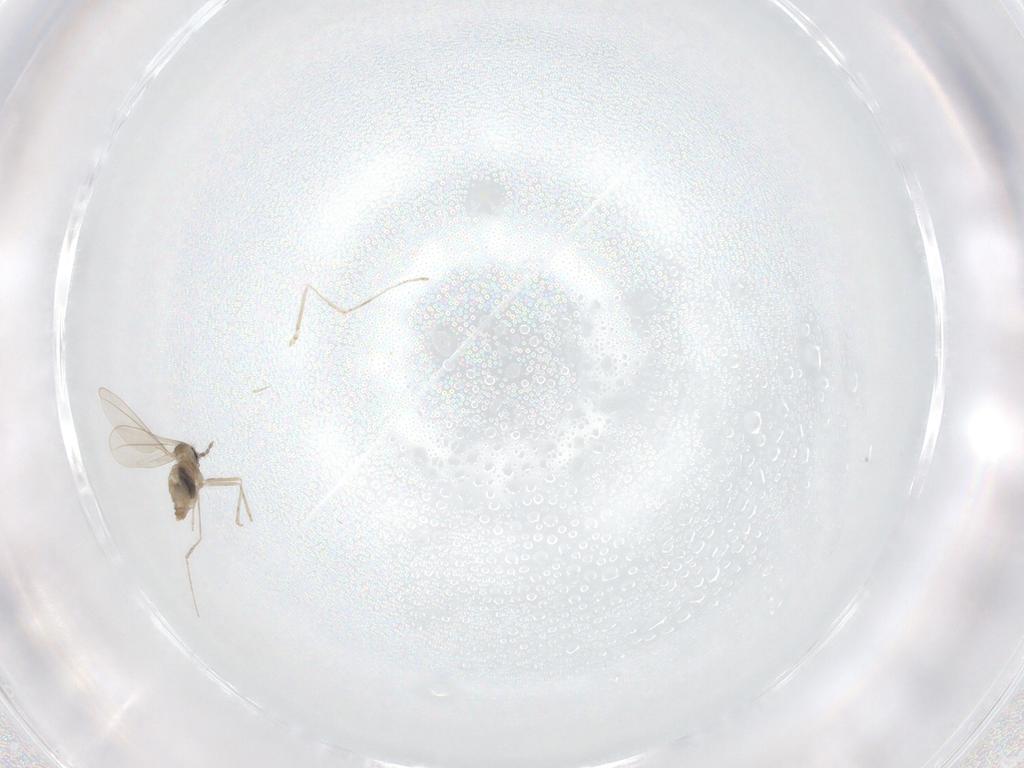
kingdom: Animalia
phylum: Arthropoda
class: Insecta
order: Diptera
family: Cecidomyiidae
